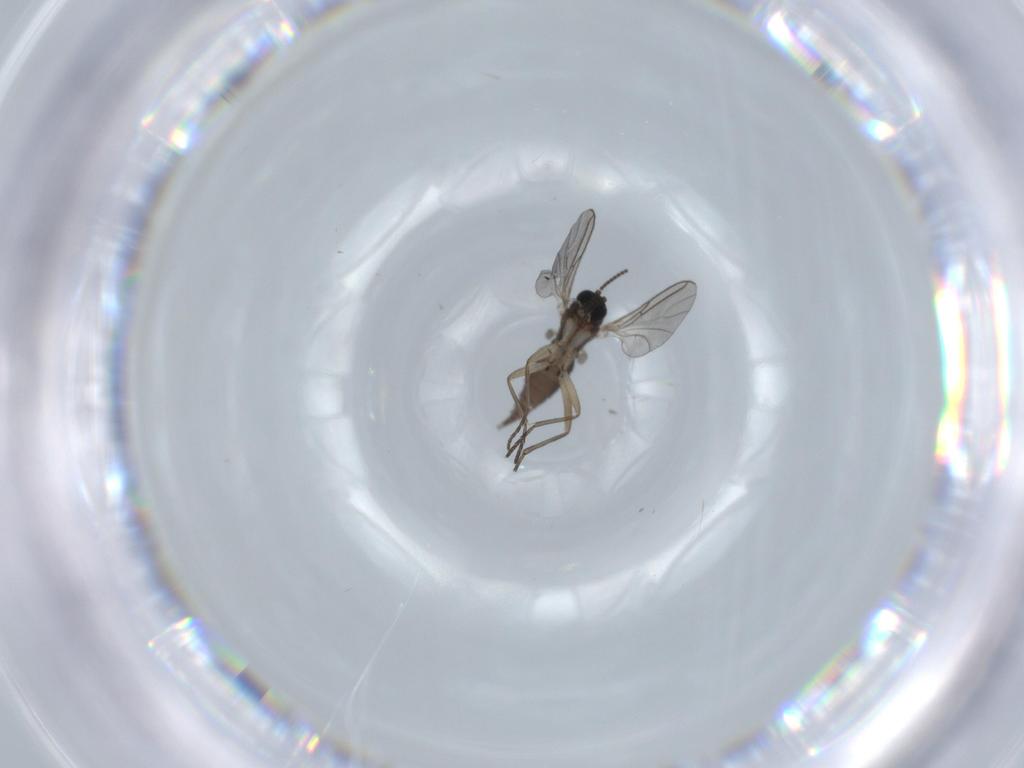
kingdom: Animalia
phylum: Arthropoda
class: Insecta
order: Diptera
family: Sciaridae
